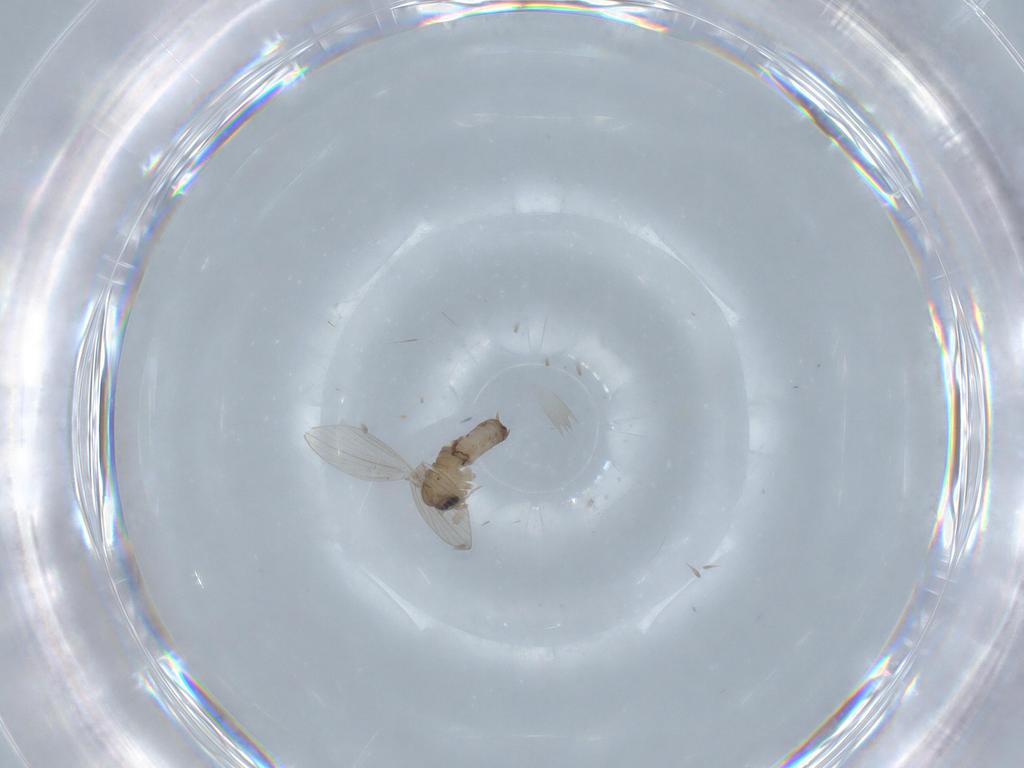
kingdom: Animalia
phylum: Arthropoda
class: Insecta
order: Diptera
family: Psychodidae
